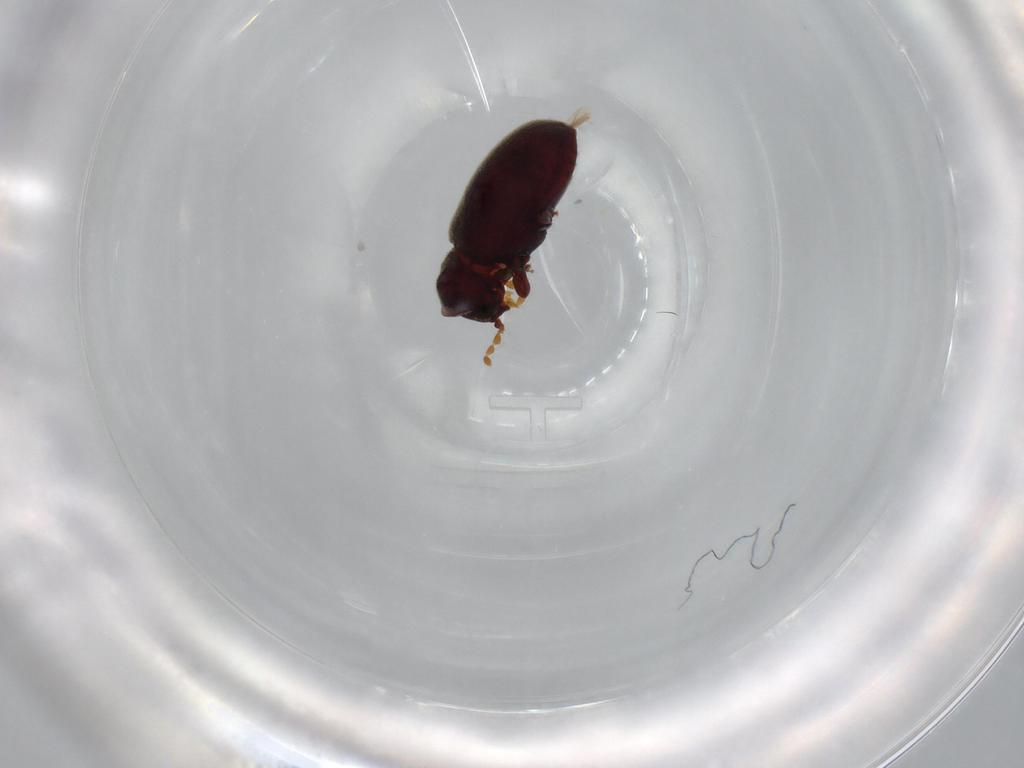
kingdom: Animalia
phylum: Arthropoda
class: Insecta
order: Coleoptera
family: Anobiidae
